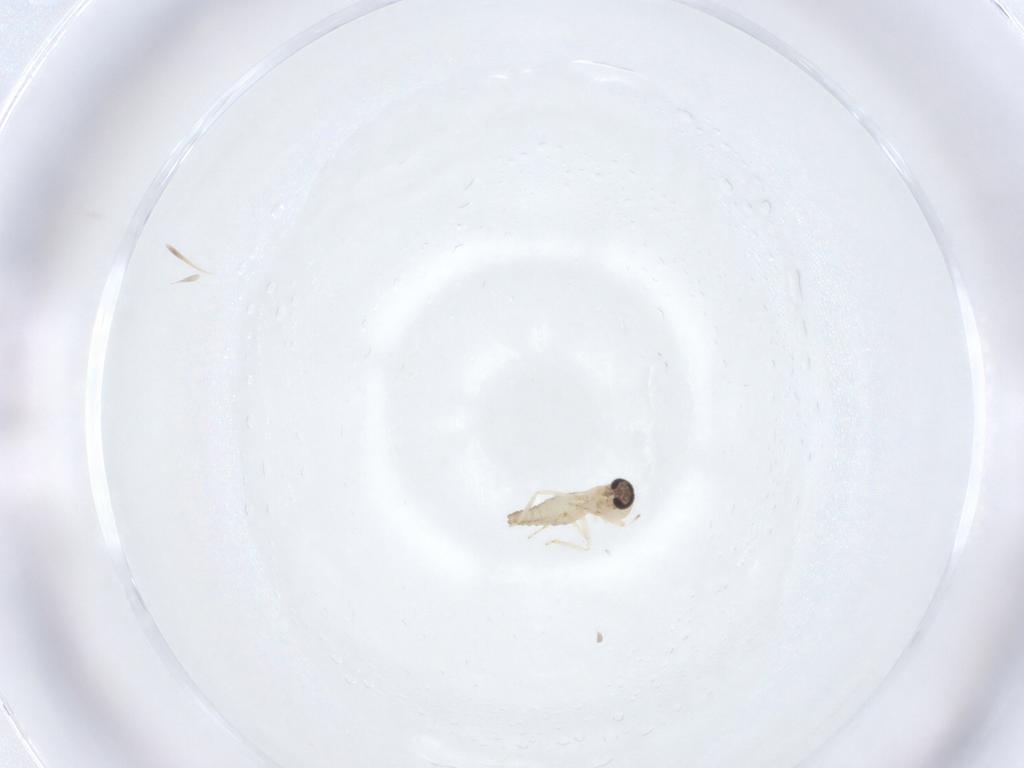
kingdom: Animalia
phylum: Arthropoda
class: Insecta
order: Diptera
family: Ceratopogonidae
